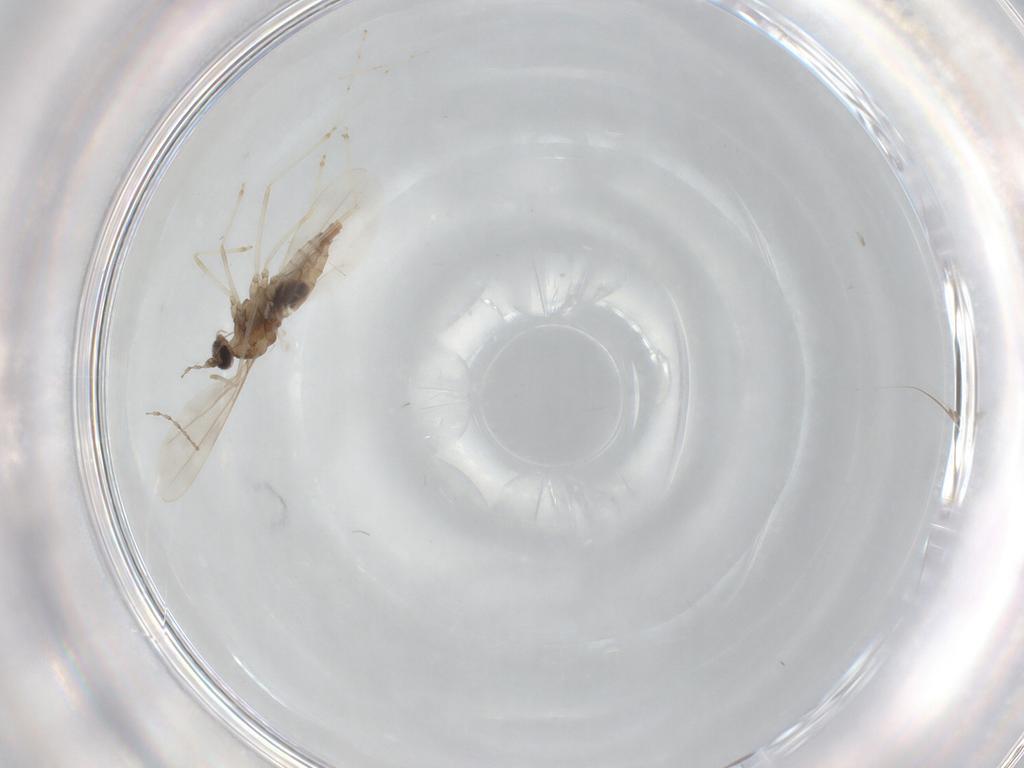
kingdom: Animalia
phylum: Arthropoda
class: Insecta
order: Diptera
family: Cecidomyiidae
